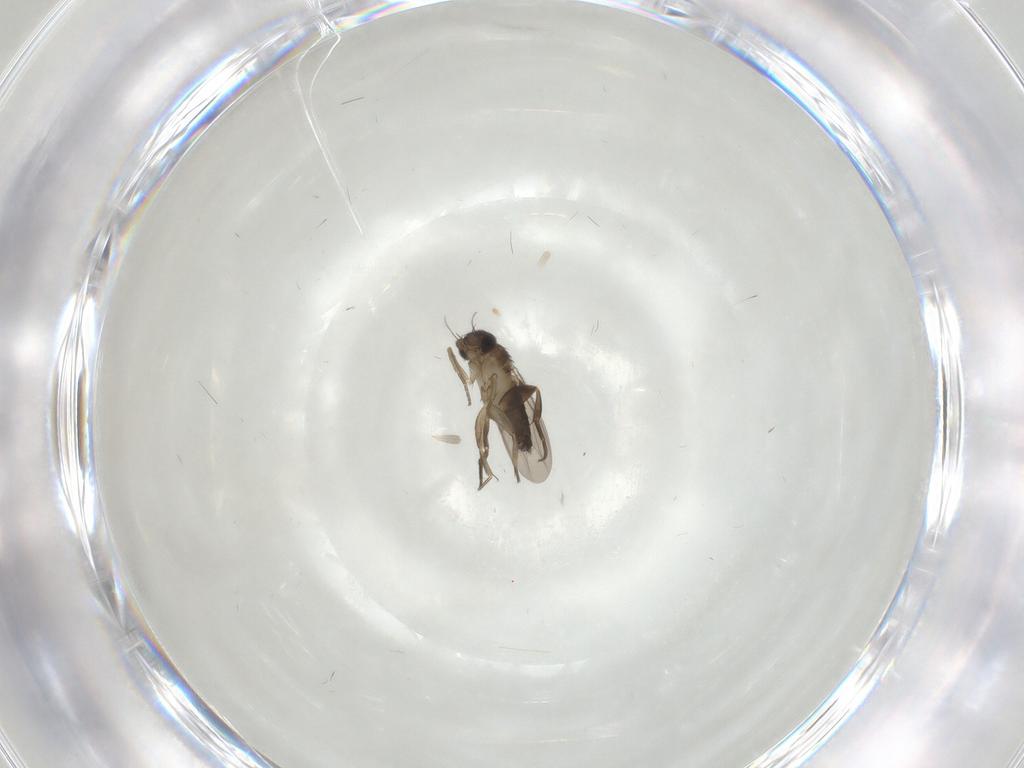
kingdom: Animalia
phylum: Arthropoda
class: Insecta
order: Diptera
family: Phoridae
